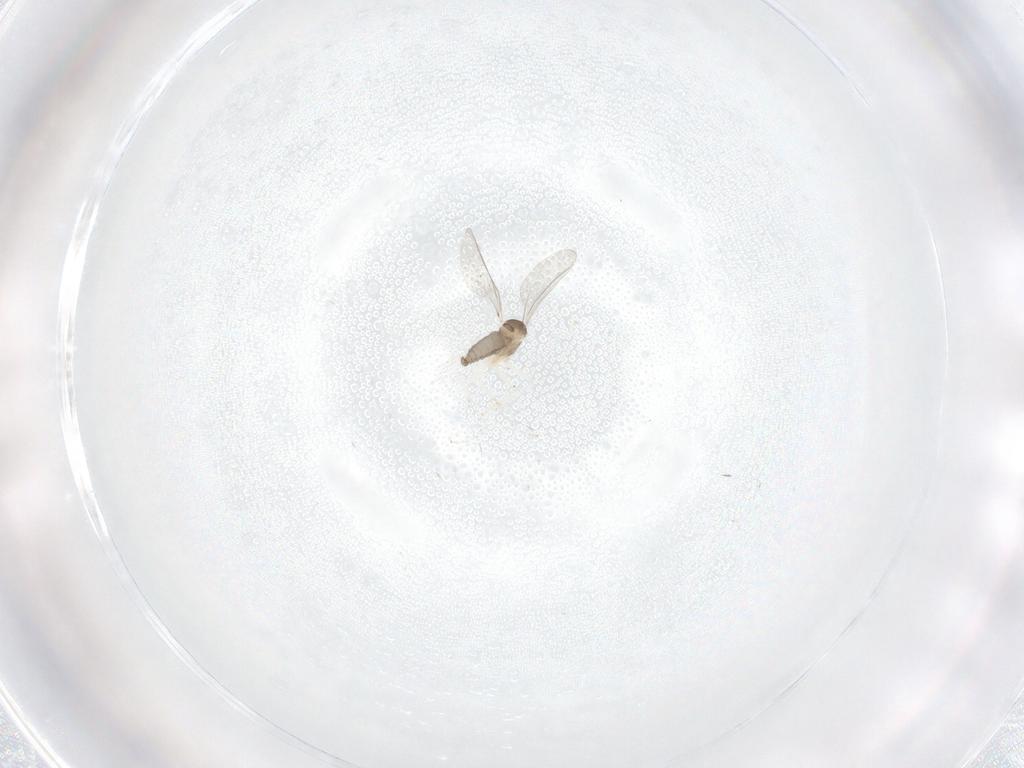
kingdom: Animalia
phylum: Arthropoda
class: Insecta
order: Diptera
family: Cecidomyiidae
